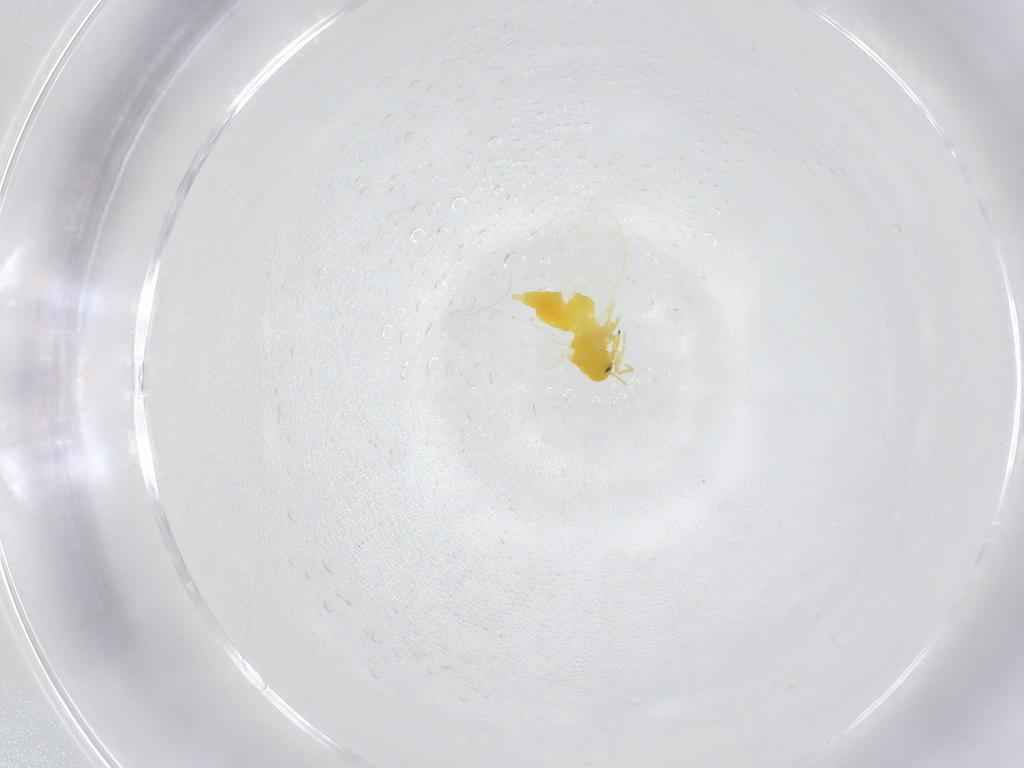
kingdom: Animalia
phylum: Arthropoda
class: Insecta
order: Hemiptera
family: Aleyrodidae
